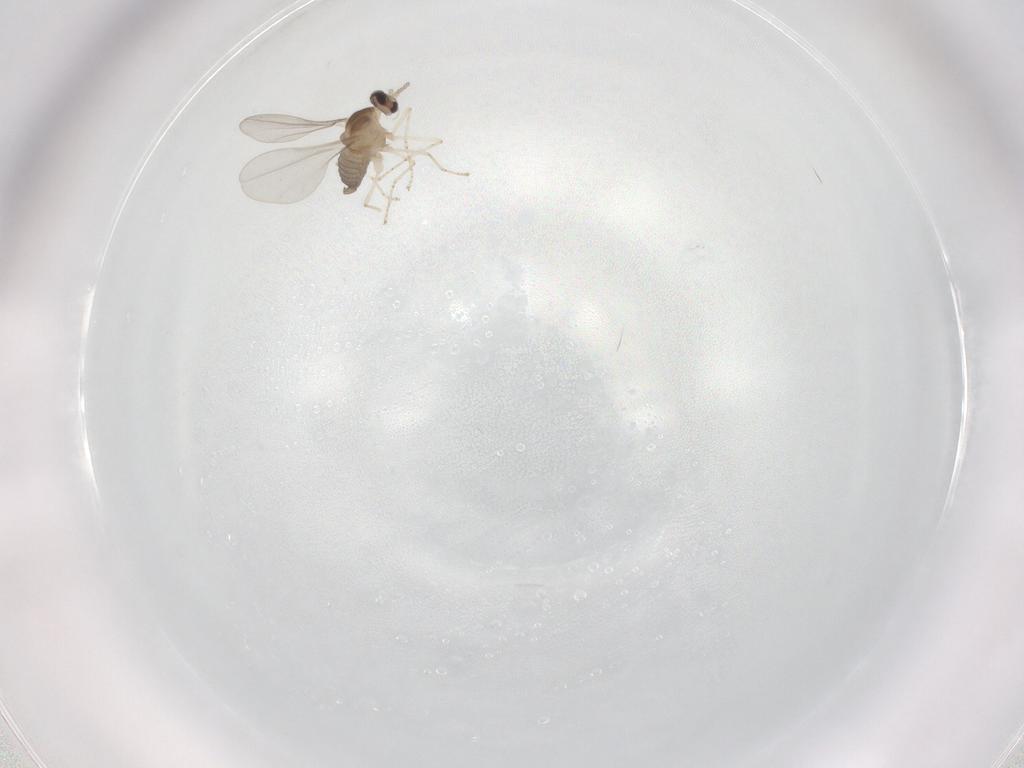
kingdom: Animalia
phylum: Arthropoda
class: Insecta
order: Diptera
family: Cecidomyiidae
